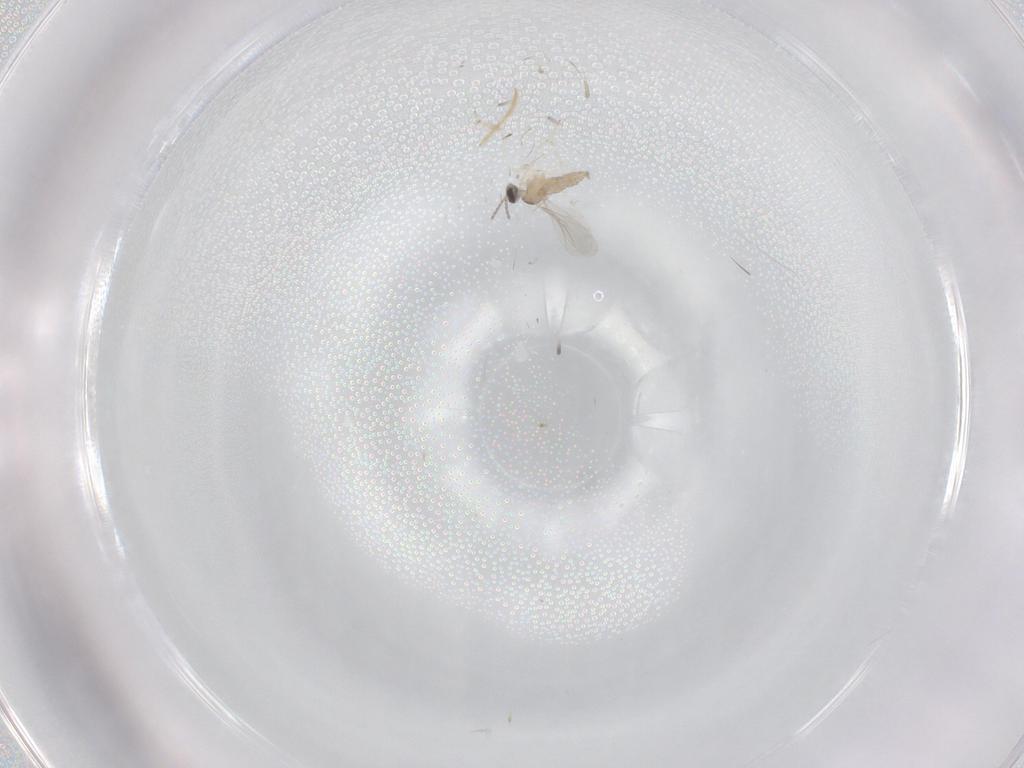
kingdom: Animalia
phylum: Arthropoda
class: Insecta
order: Diptera
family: Cecidomyiidae
